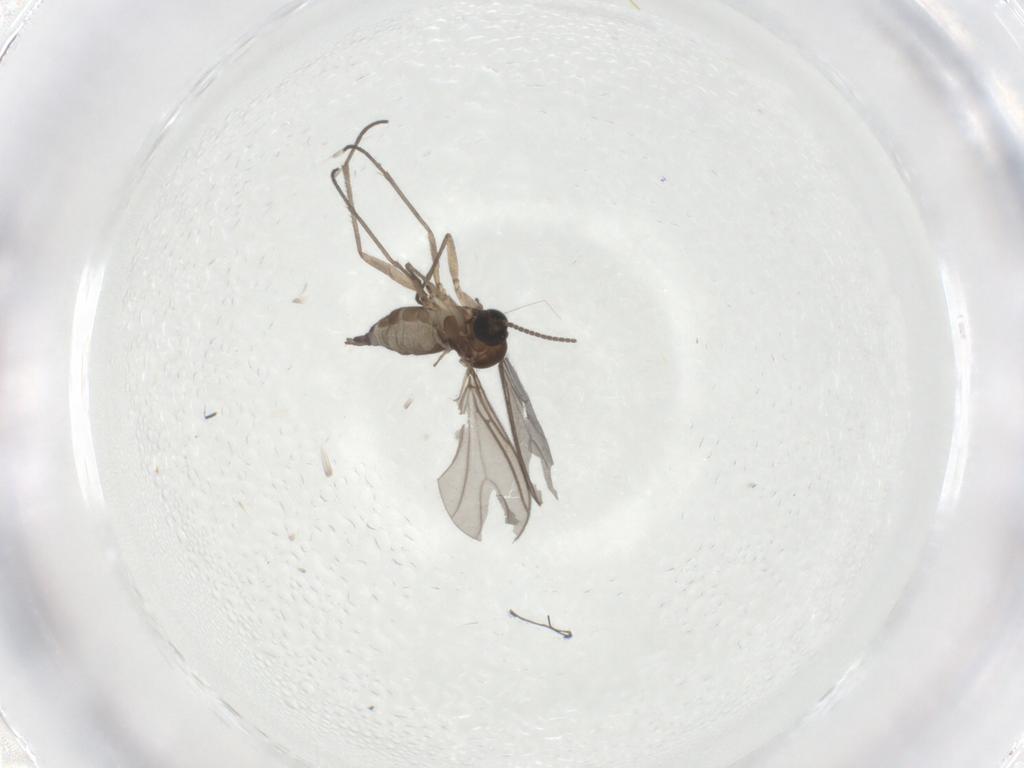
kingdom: Animalia
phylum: Arthropoda
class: Insecta
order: Diptera
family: Sciaridae
